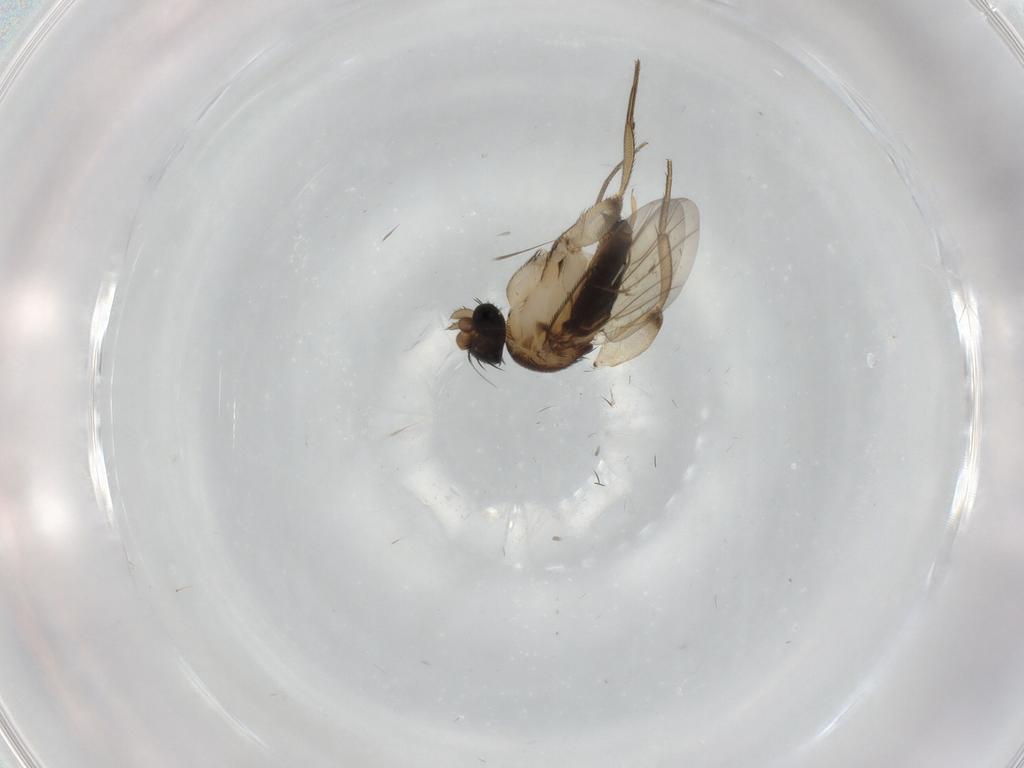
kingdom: Animalia
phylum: Arthropoda
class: Insecta
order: Diptera
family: Phoridae
